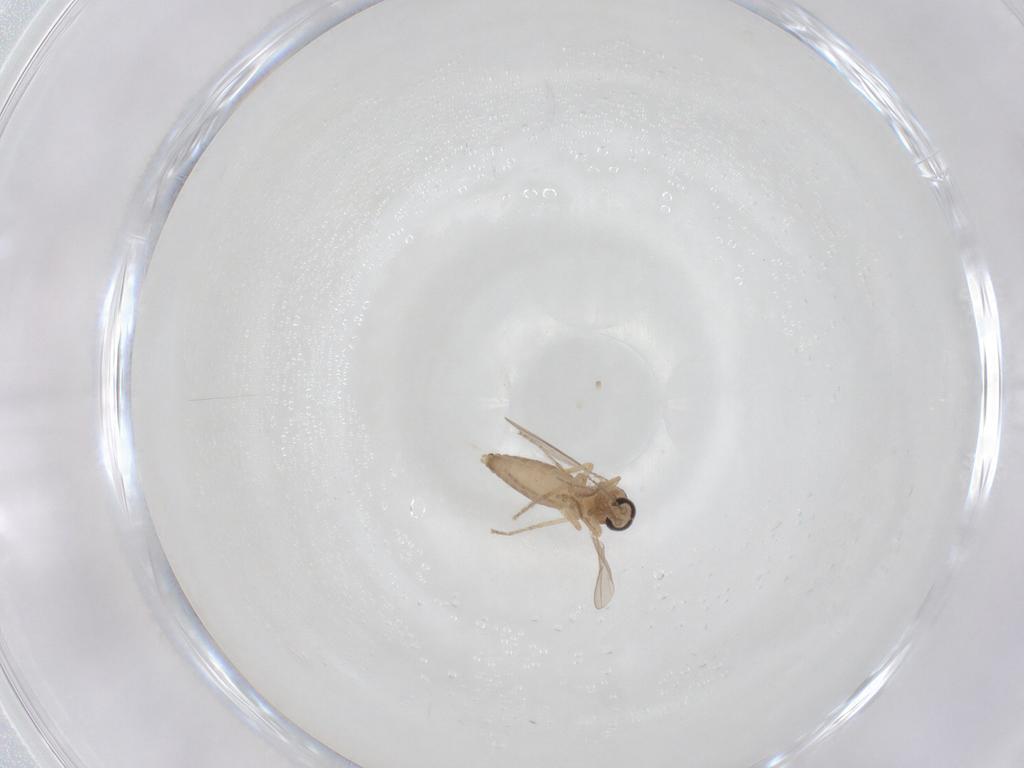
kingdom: Animalia
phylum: Arthropoda
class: Insecta
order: Diptera
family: Ceratopogonidae
